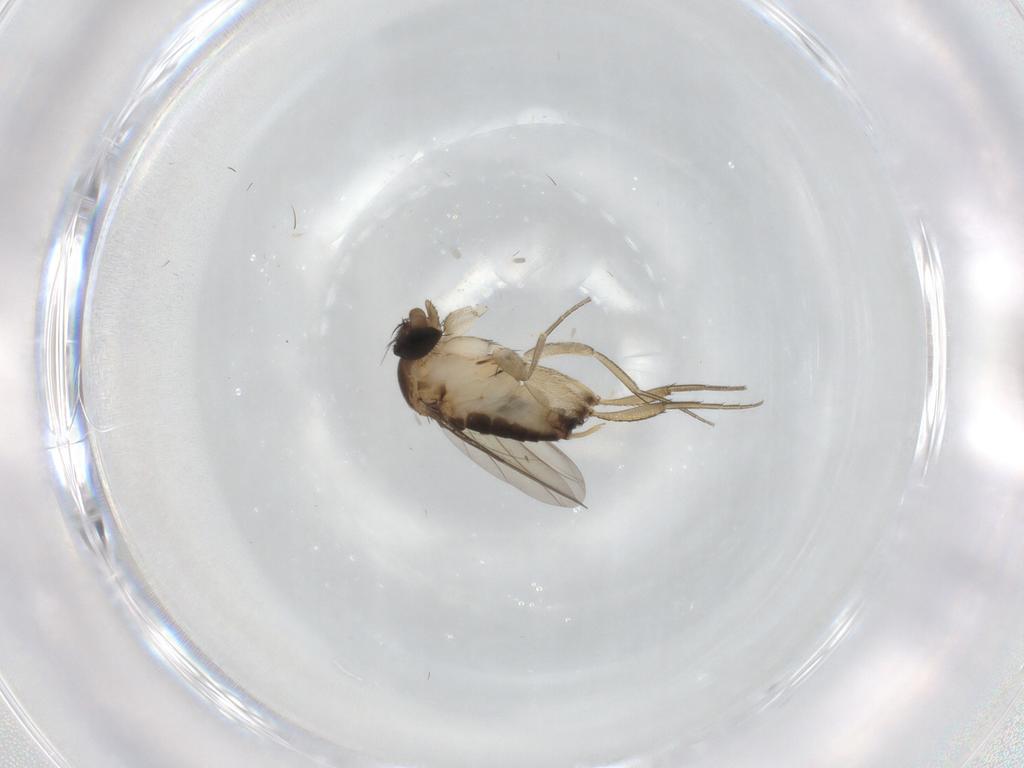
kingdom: Animalia
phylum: Arthropoda
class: Insecta
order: Diptera
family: Phoridae
